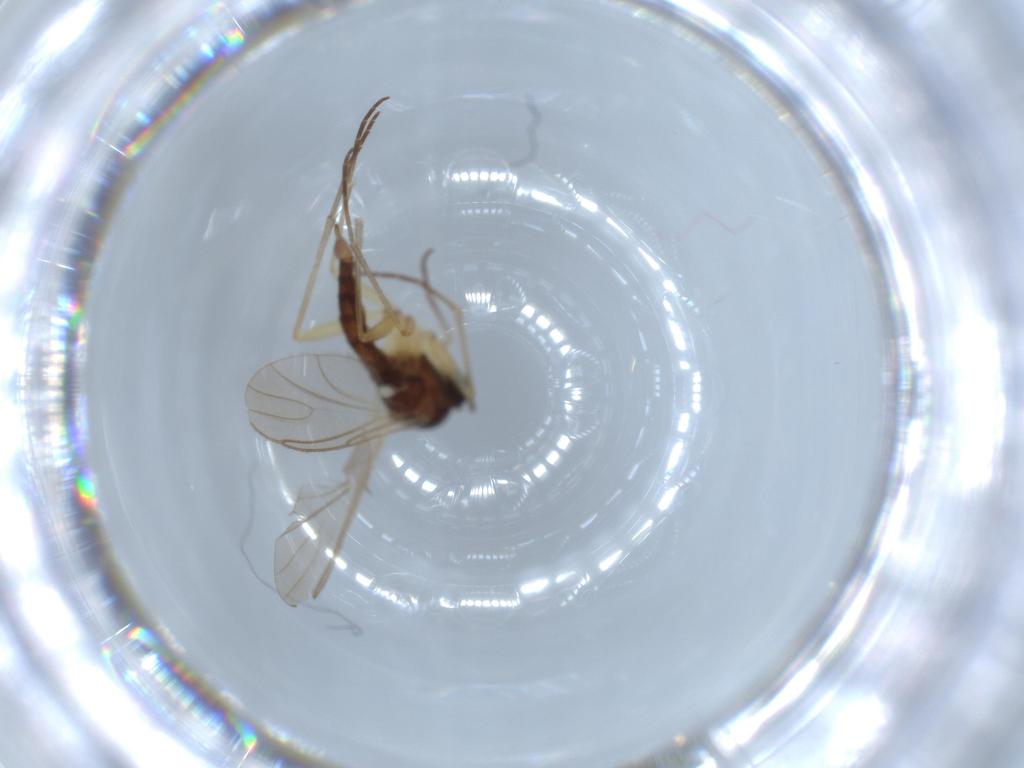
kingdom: Animalia
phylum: Arthropoda
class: Insecta
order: Diptera
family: Sciaridae
